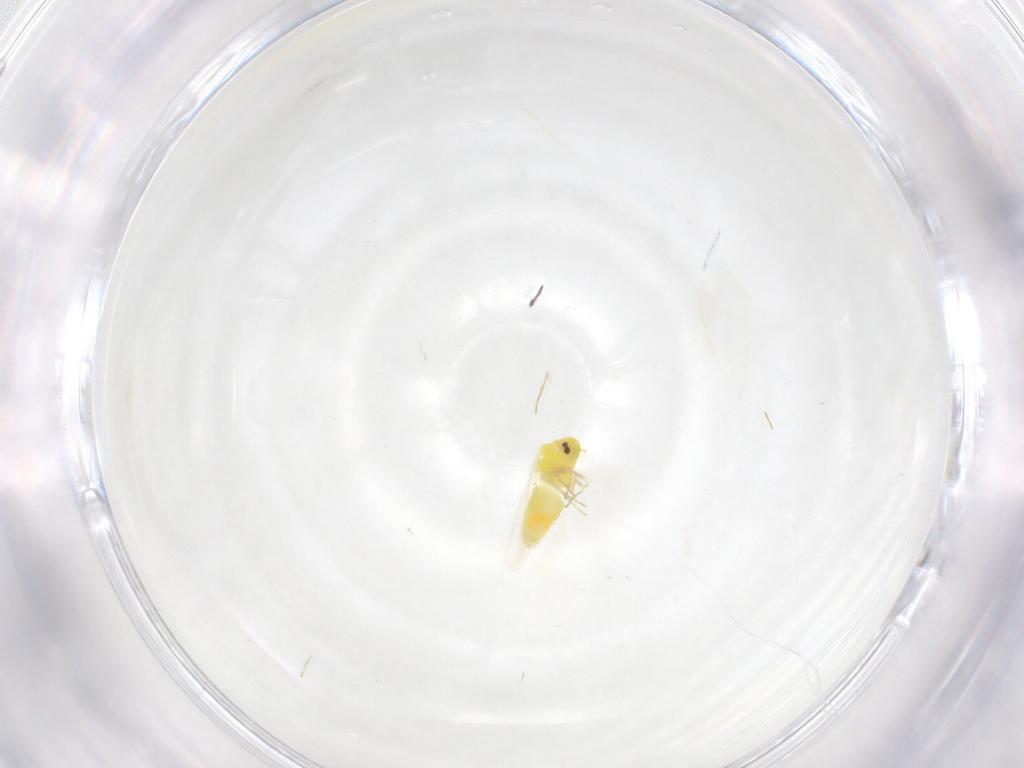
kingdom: Animalia
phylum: Arthropoda
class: Insecta
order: Hemiptera
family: Aleyrodidae
